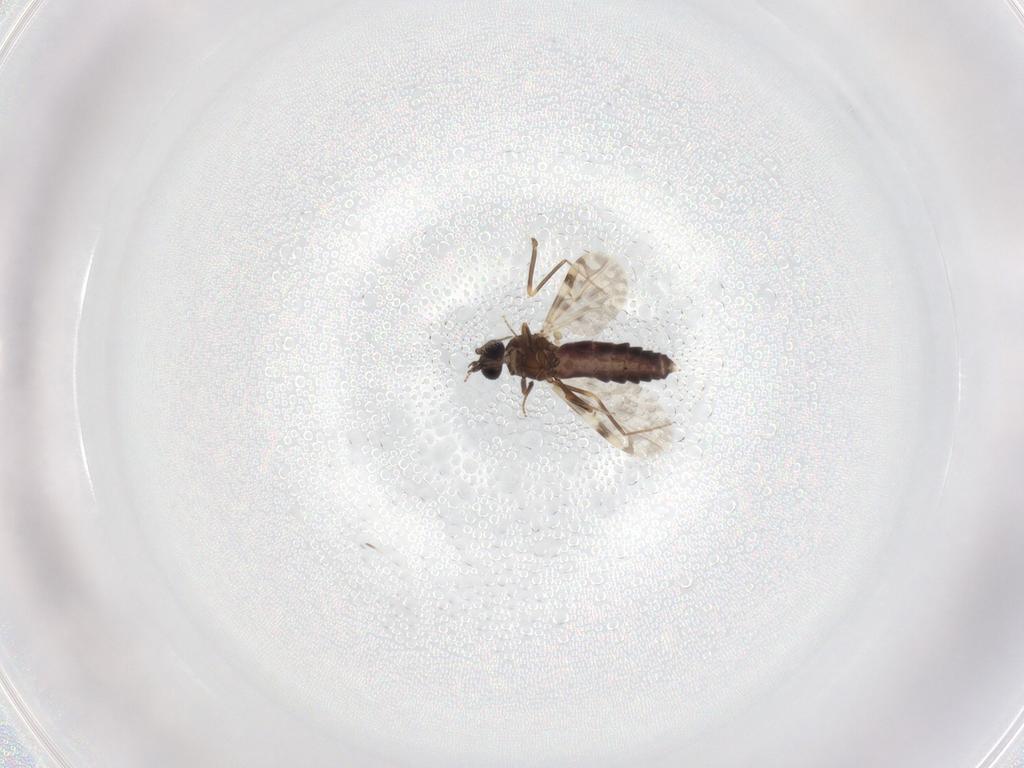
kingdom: Animalia
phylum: Arthropoda
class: Insecta
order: Diptera
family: Ceratopogonidae
